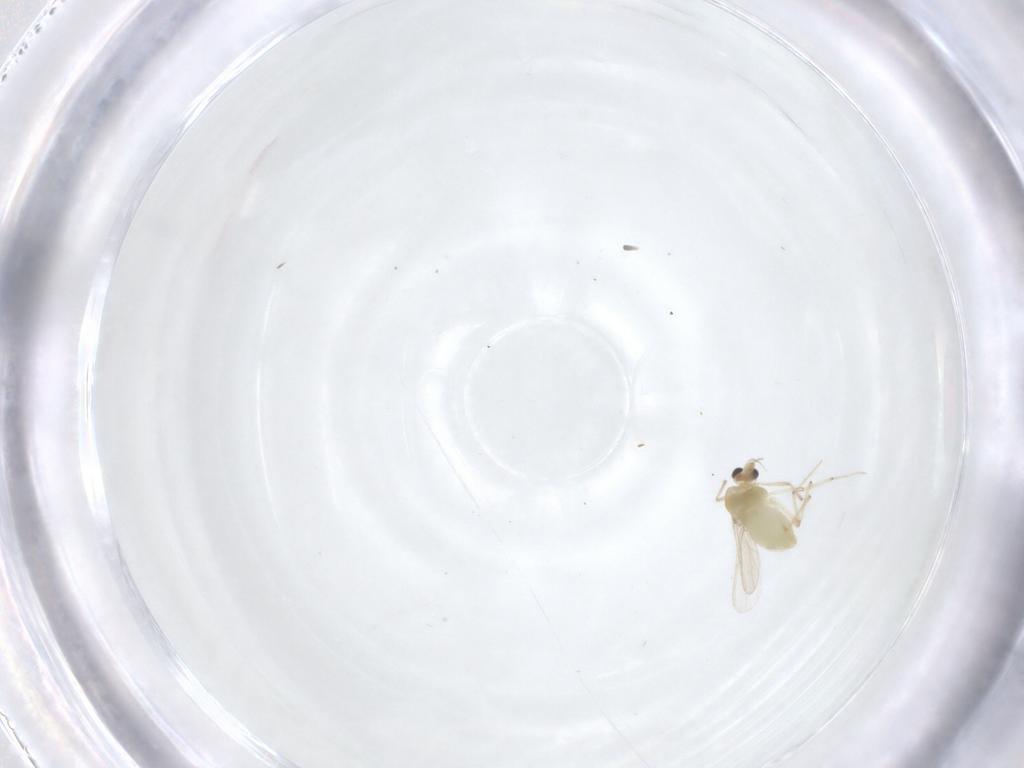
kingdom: Animalia
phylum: Arthropoda
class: Insecta
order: Diptera
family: Chironomidae
